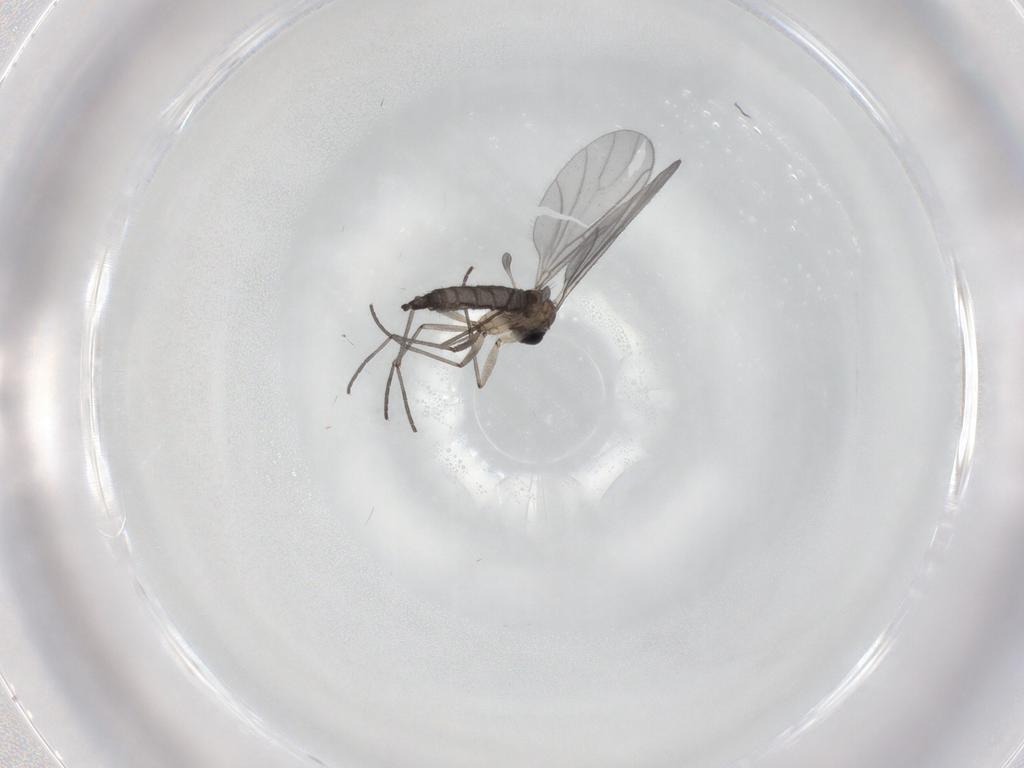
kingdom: Animalia
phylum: Arthropoda
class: Insecta
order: Diptera
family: Sciaridae
